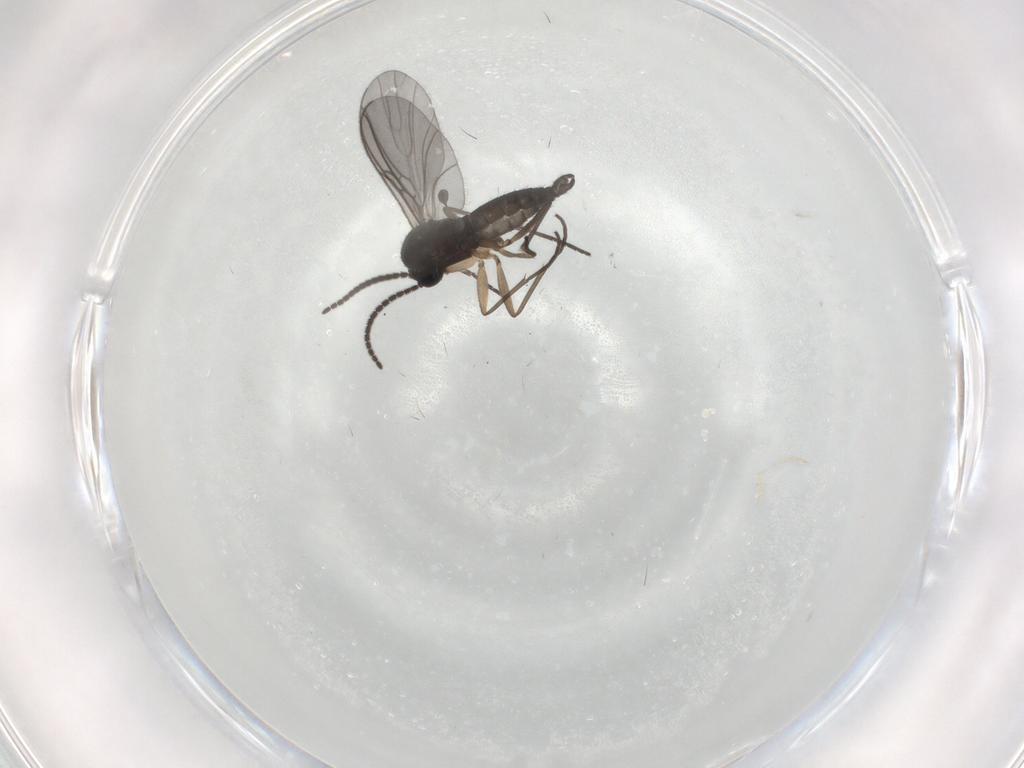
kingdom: Animalia
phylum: Arthropoda
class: Insecta
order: Diptera
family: Sciaridae
